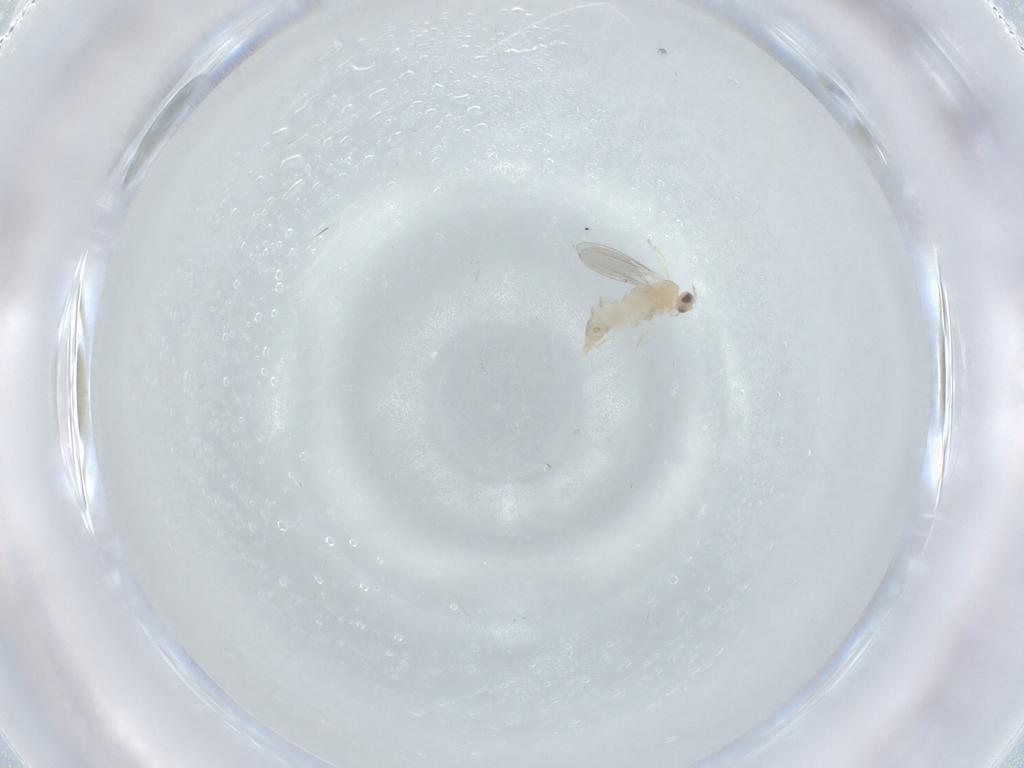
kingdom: Animalia
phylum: Arthropoda
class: Insecta
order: Diptera
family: Cecidomyiidae
